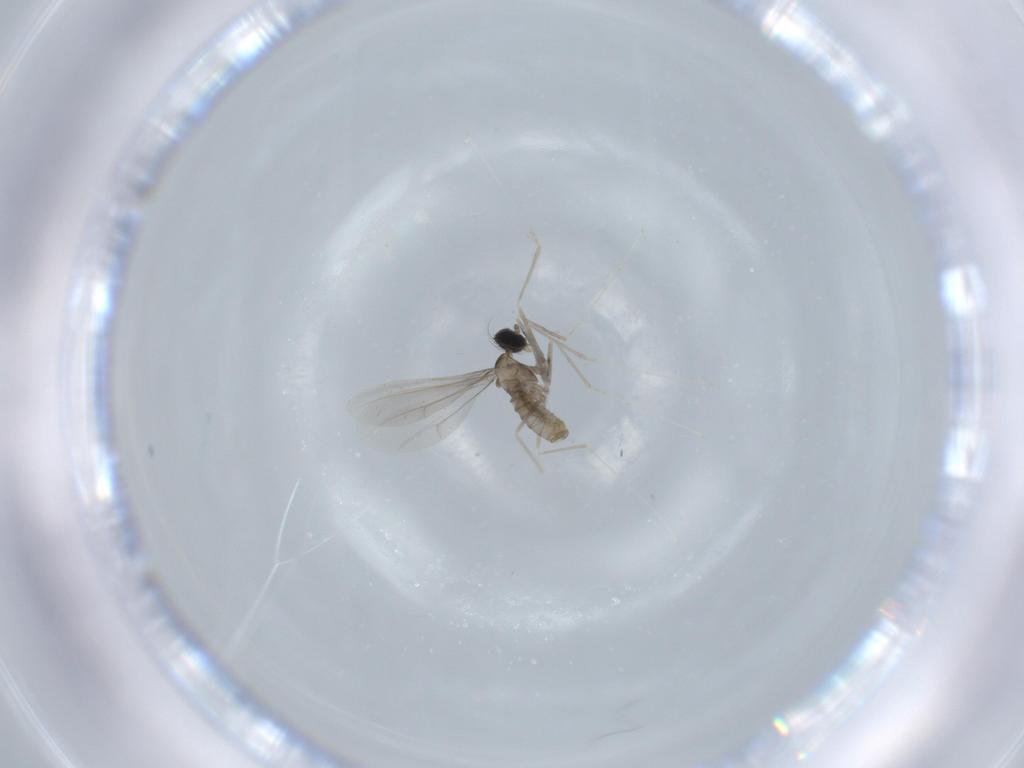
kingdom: Animalia
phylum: Arthropoda
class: Insecta
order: Diptera
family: Cecidomyiidae
